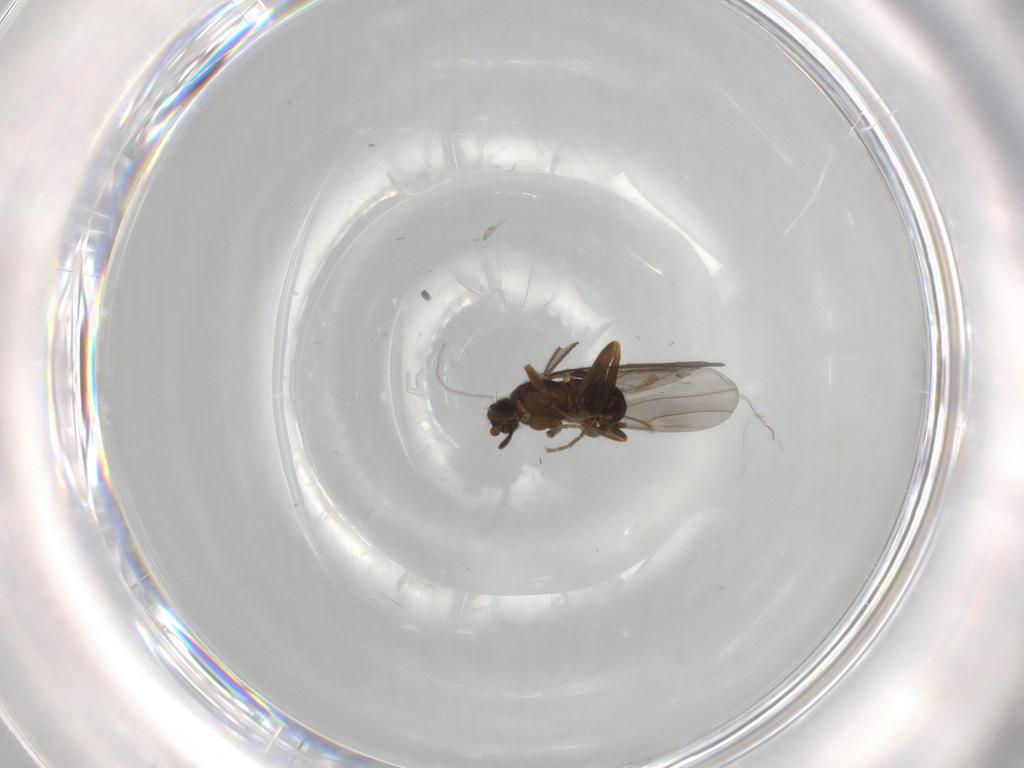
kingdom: Animalia
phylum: Arthropoda
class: Insecta
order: Diptera
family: Phoridae
